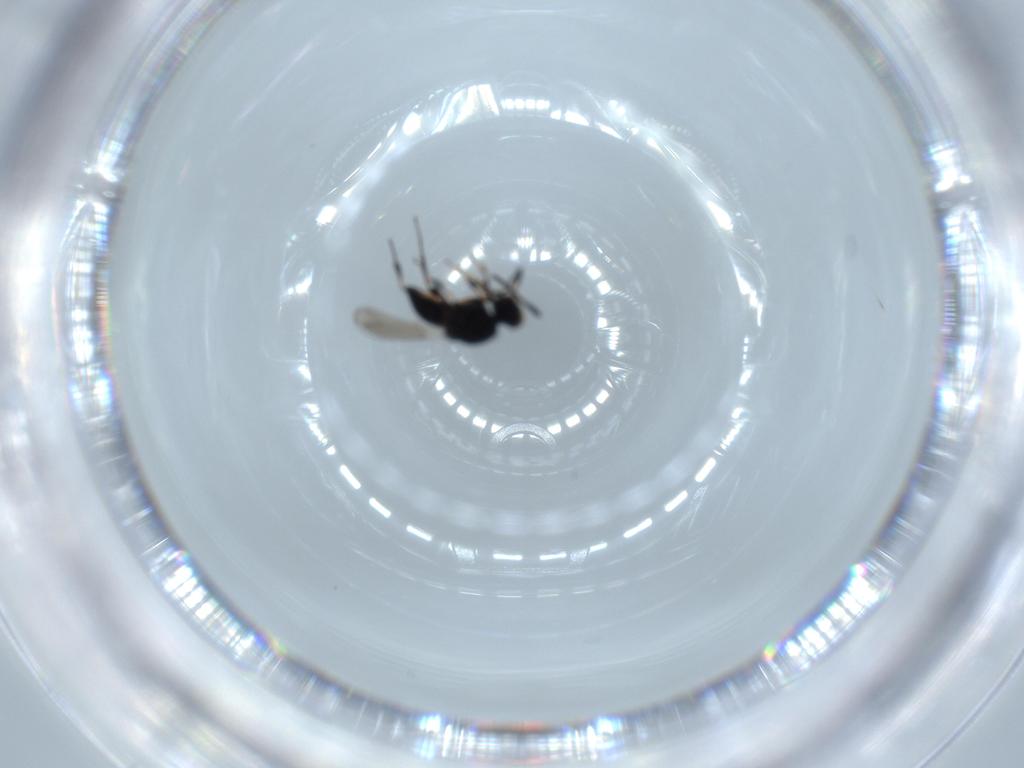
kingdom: Animalia
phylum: Arthropoda
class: Insecta
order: Hymenoptera
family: Platygastridae
